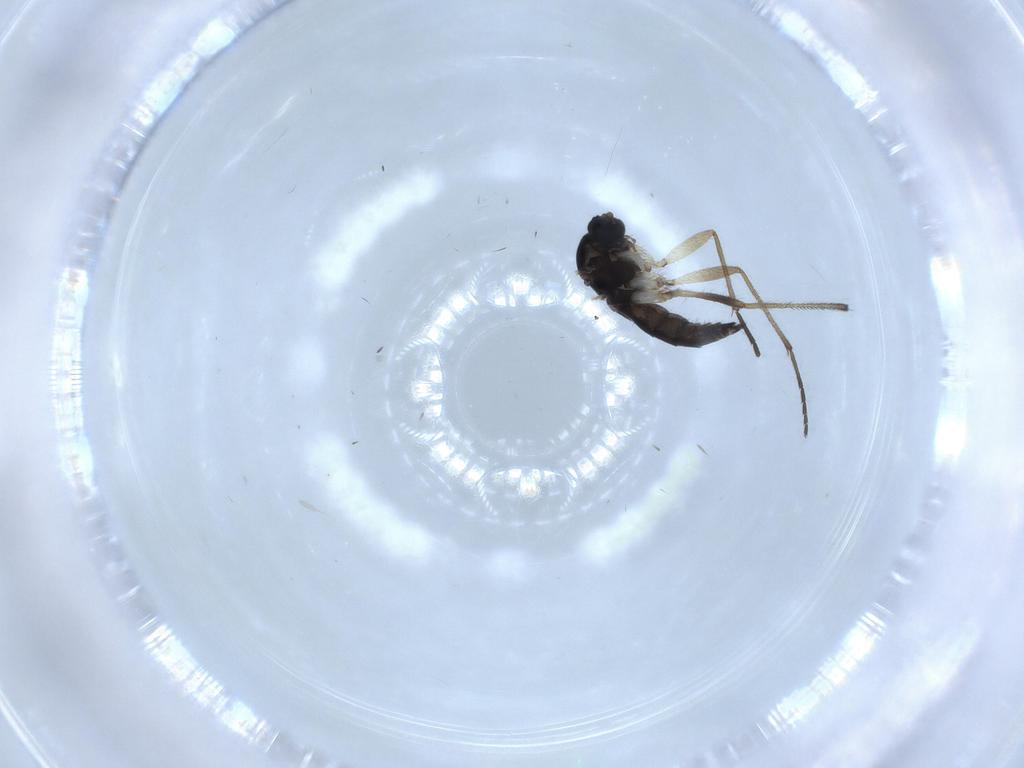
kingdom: Animalia
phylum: Arthropoda
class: Insecta
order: Diptera
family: Sciaridae
